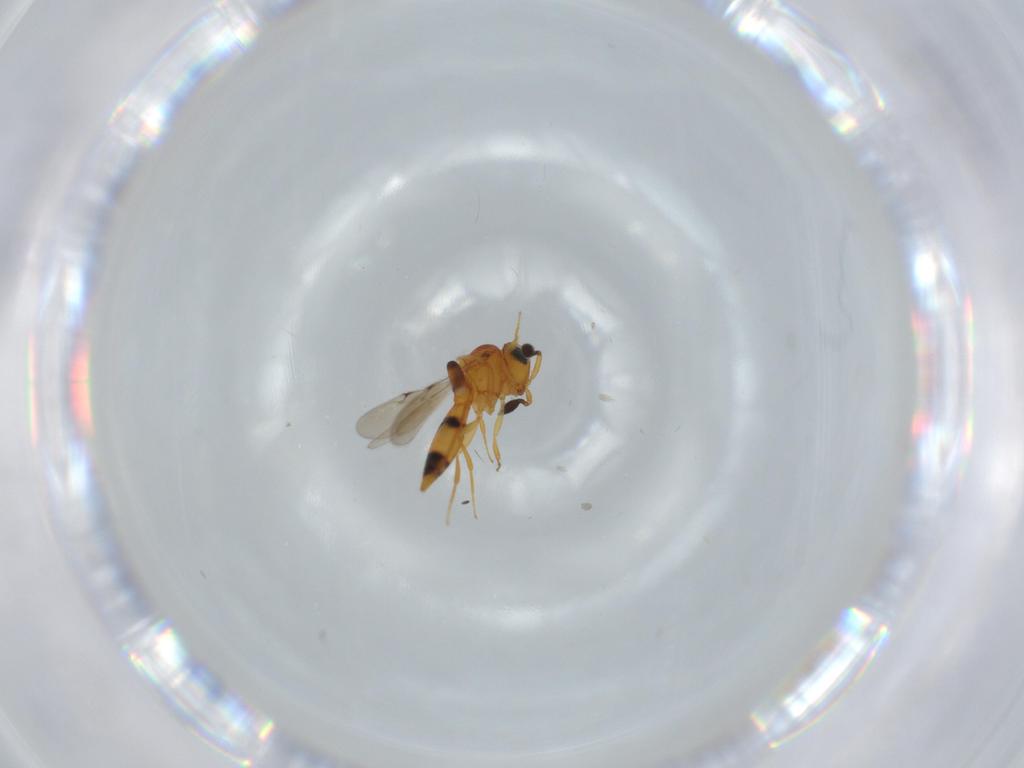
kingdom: Animalia
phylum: Arthropoda
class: Insecta
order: Hymenoptera
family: Scelionidae
